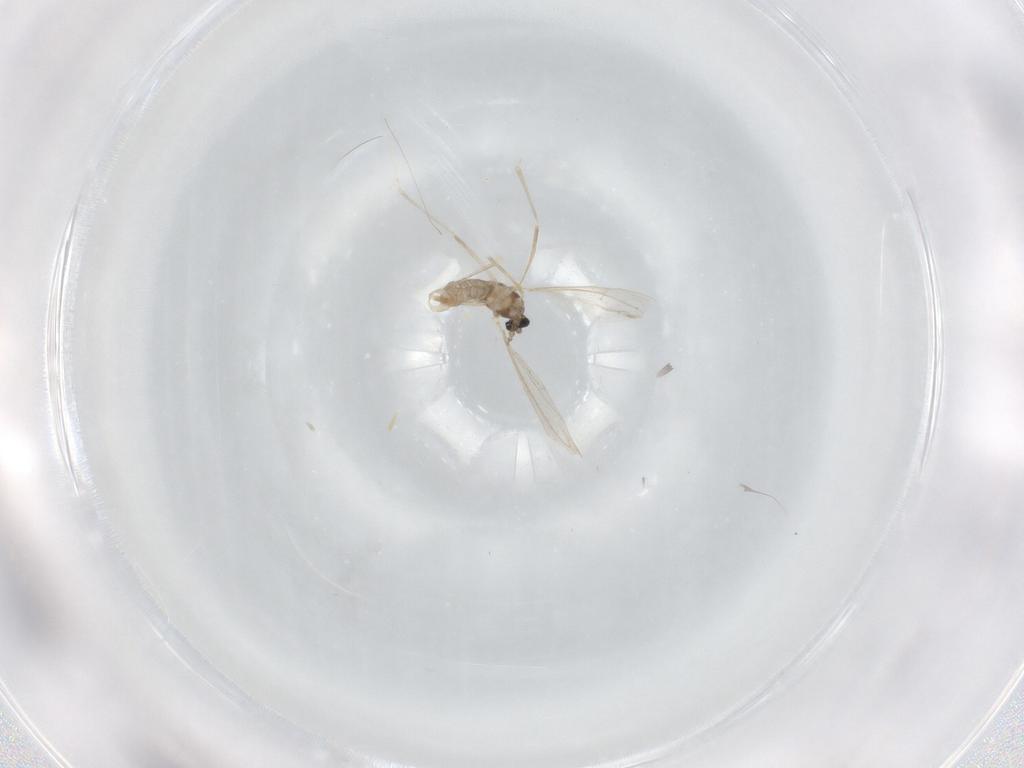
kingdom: Animalia
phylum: Arthropoda
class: Insecta
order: Diptera
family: Cecidomyiidae
